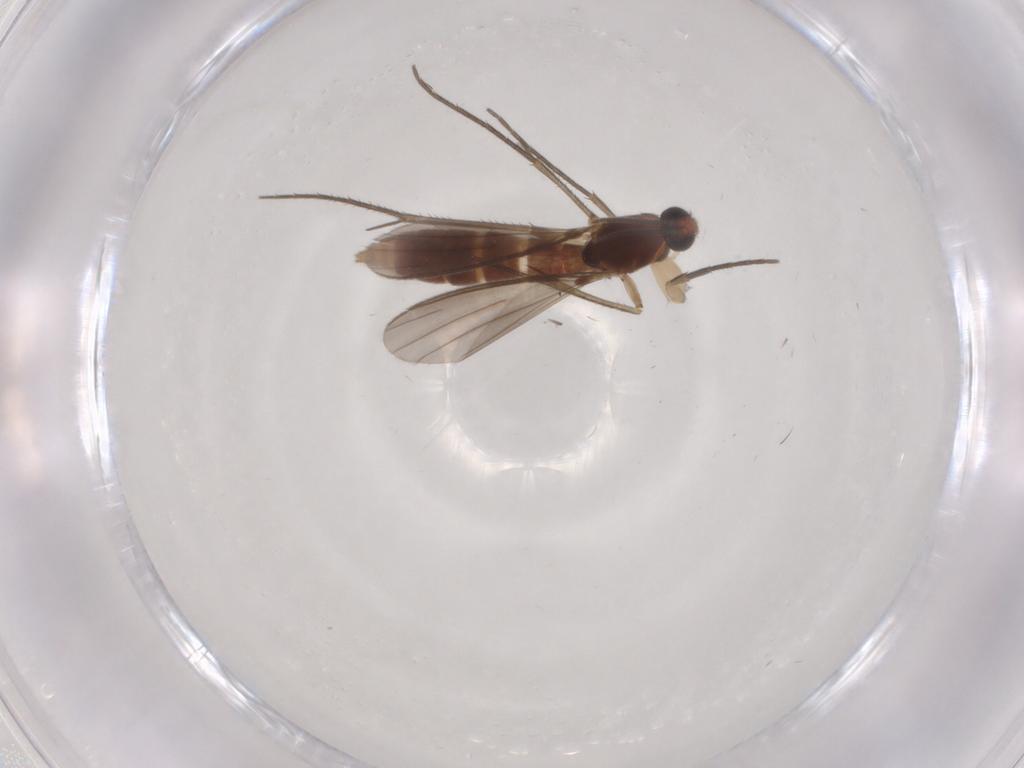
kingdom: Animalia
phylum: Arthropoda
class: Insecta
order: Diptera
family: Mycetophilidae
